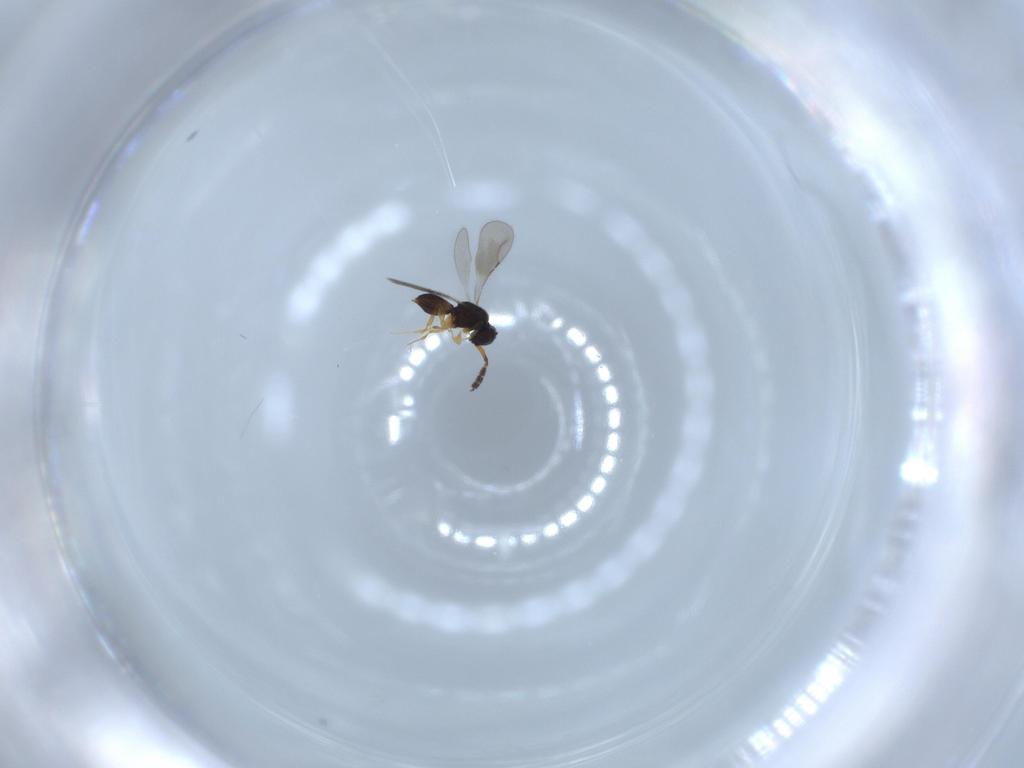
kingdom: Animalia
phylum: Arthropoda
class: Insecta
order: Hymenoptera
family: Ceraphronidae
